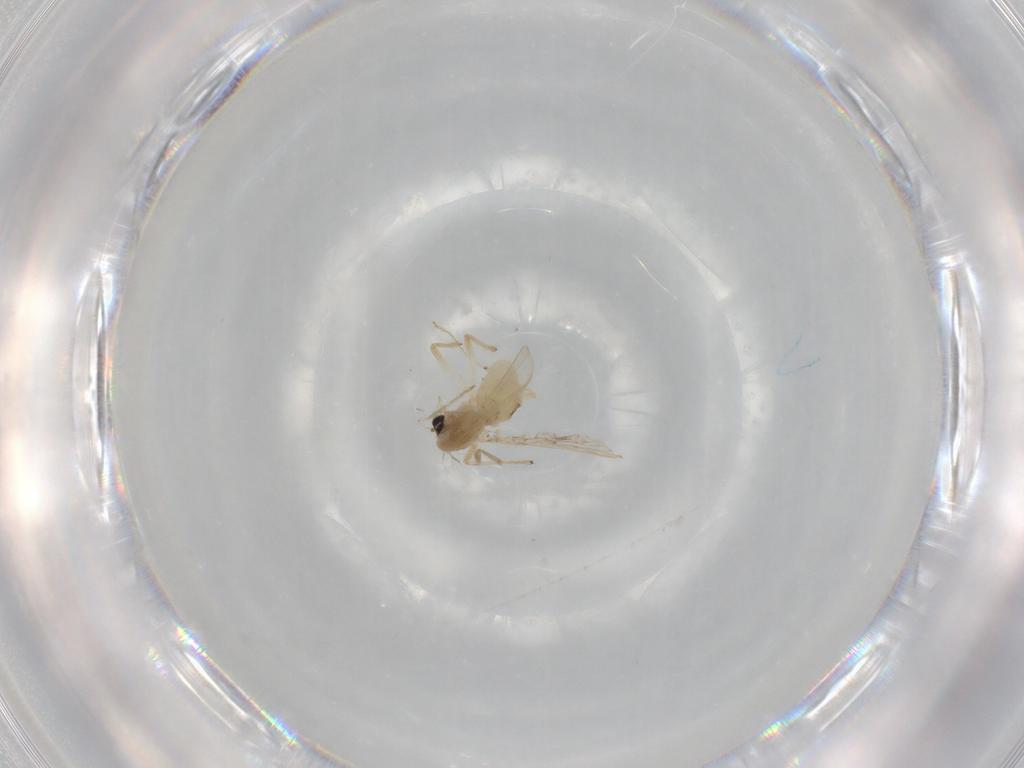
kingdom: Animalia
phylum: Arthropoda
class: Insecta
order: Diptera
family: Chironomidae
